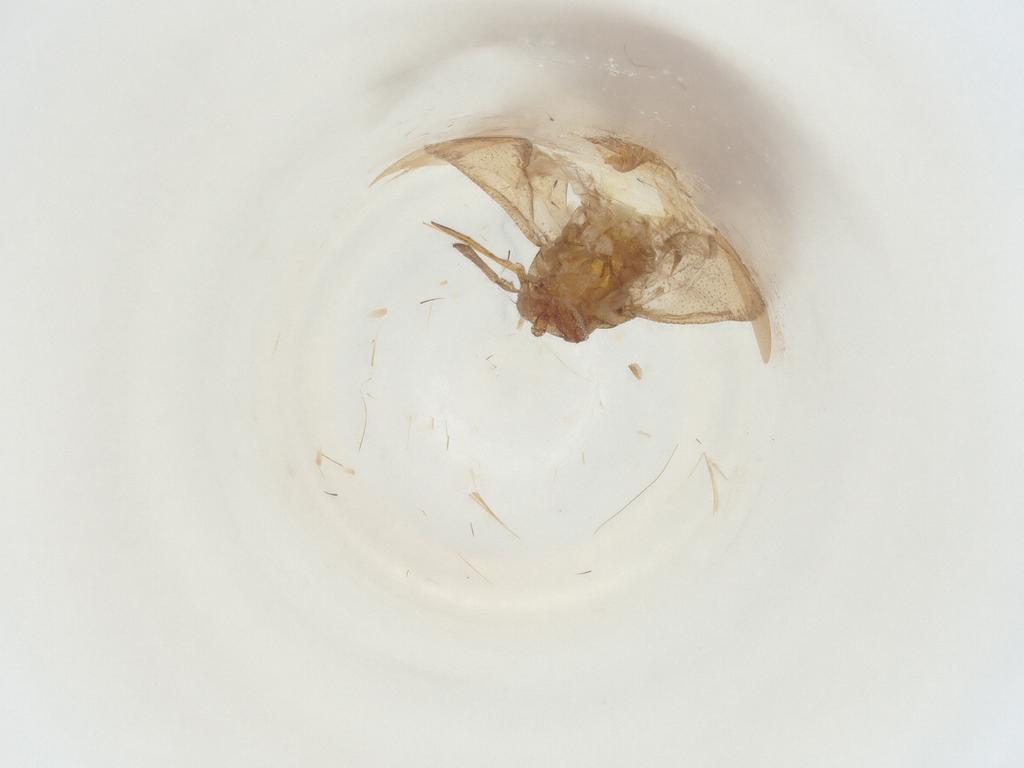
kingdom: Animalia
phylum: Arthropoda
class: Insecta
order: Hemiptera
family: Miridae
